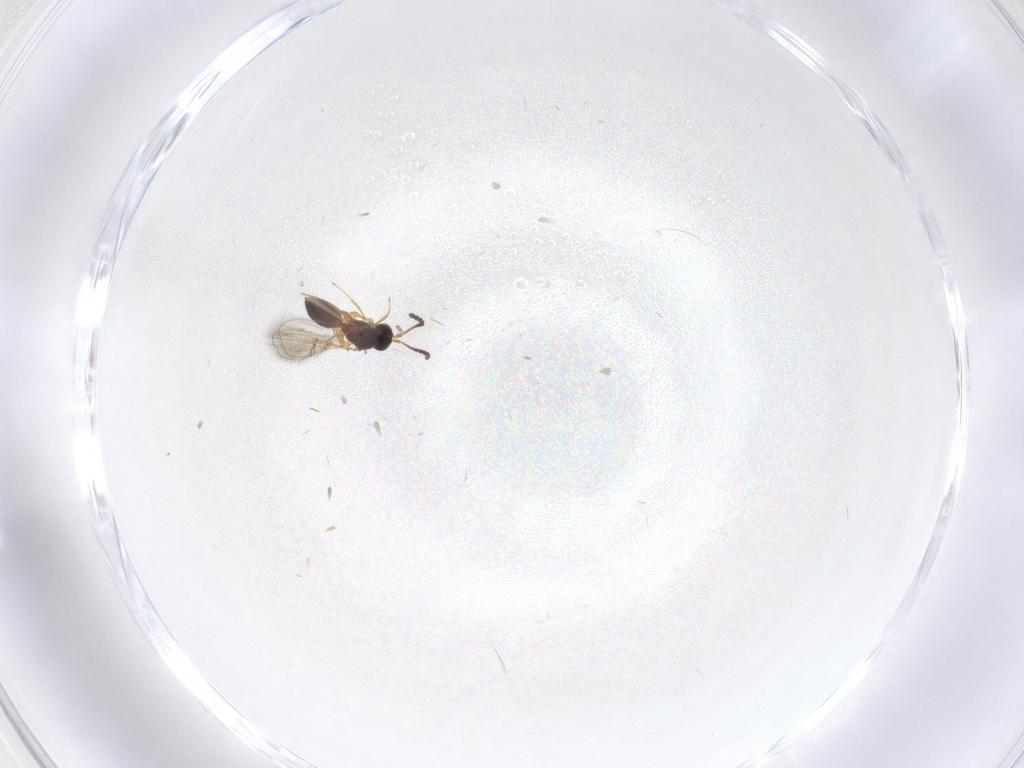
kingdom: Animalia
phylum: Arthropoda
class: Insecta
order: Hymenoptera
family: Figitidae
